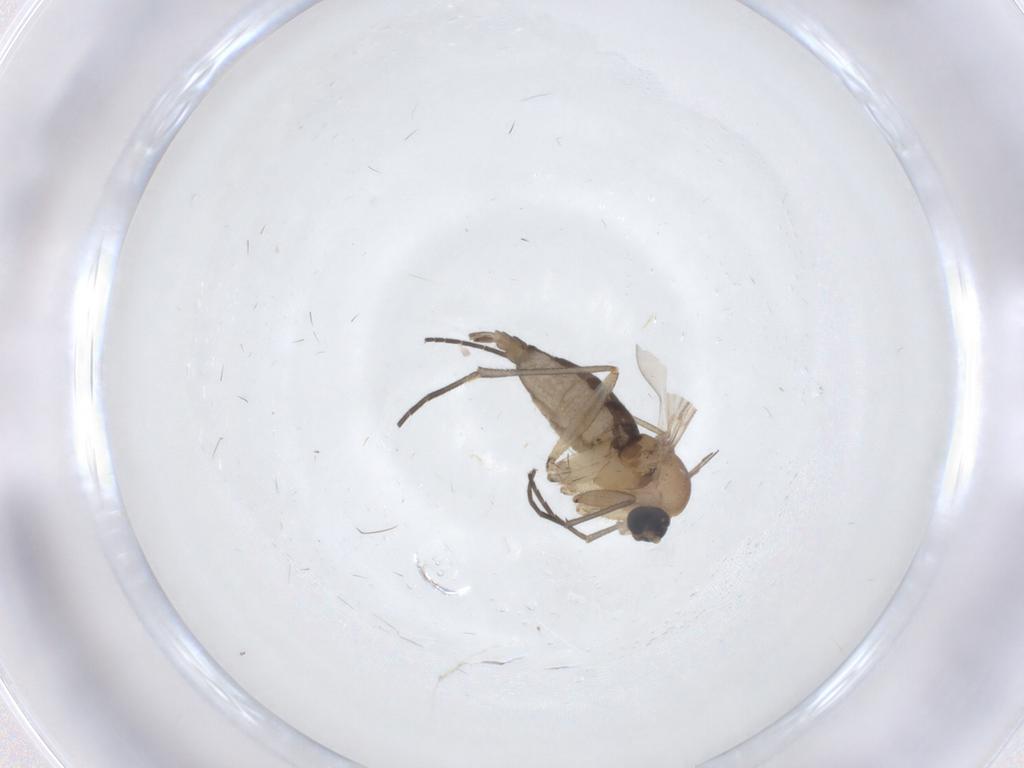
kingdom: Animalia
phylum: Arthropoda
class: Insecta
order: Diptera
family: Sciaridae
